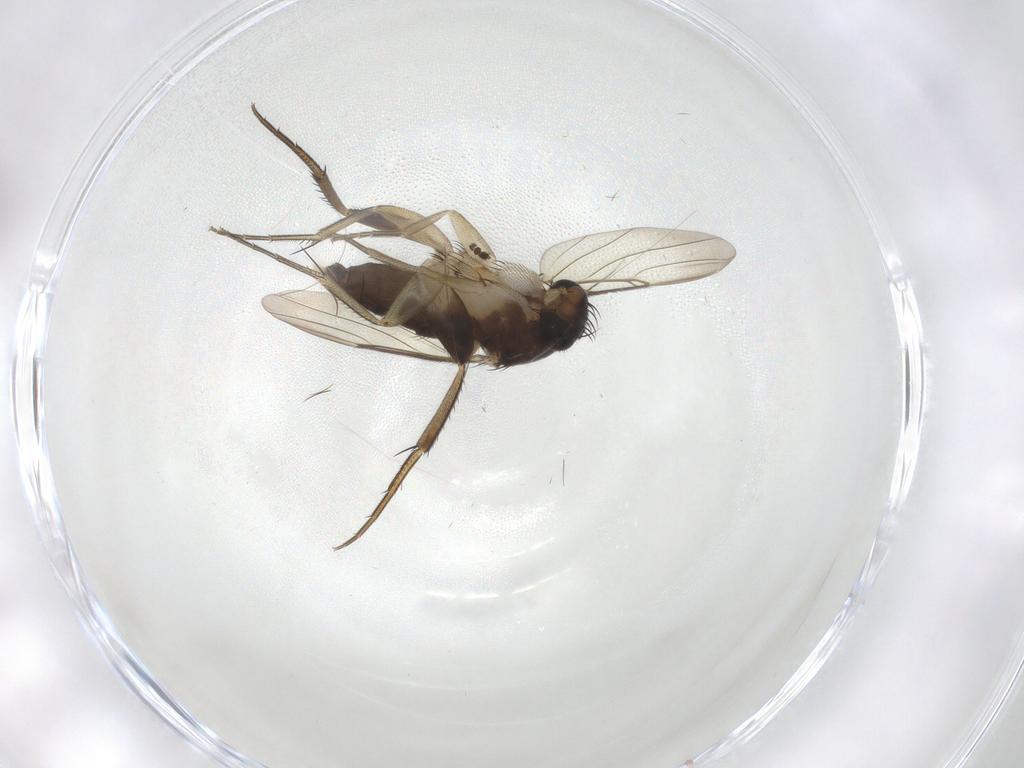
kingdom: Animalia
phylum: Arthropoda
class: Insecta
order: Diptera
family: Phoridae
